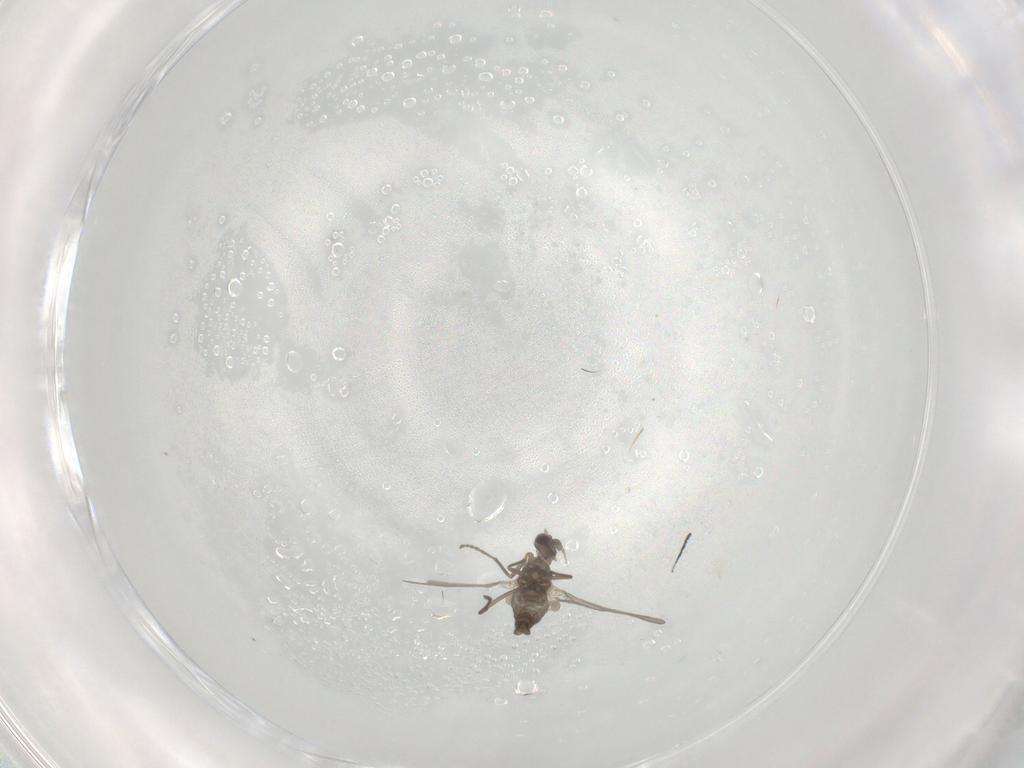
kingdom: Animalia
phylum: Arthropoda
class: Insecta
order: Diptera
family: Cecidomyiidae
